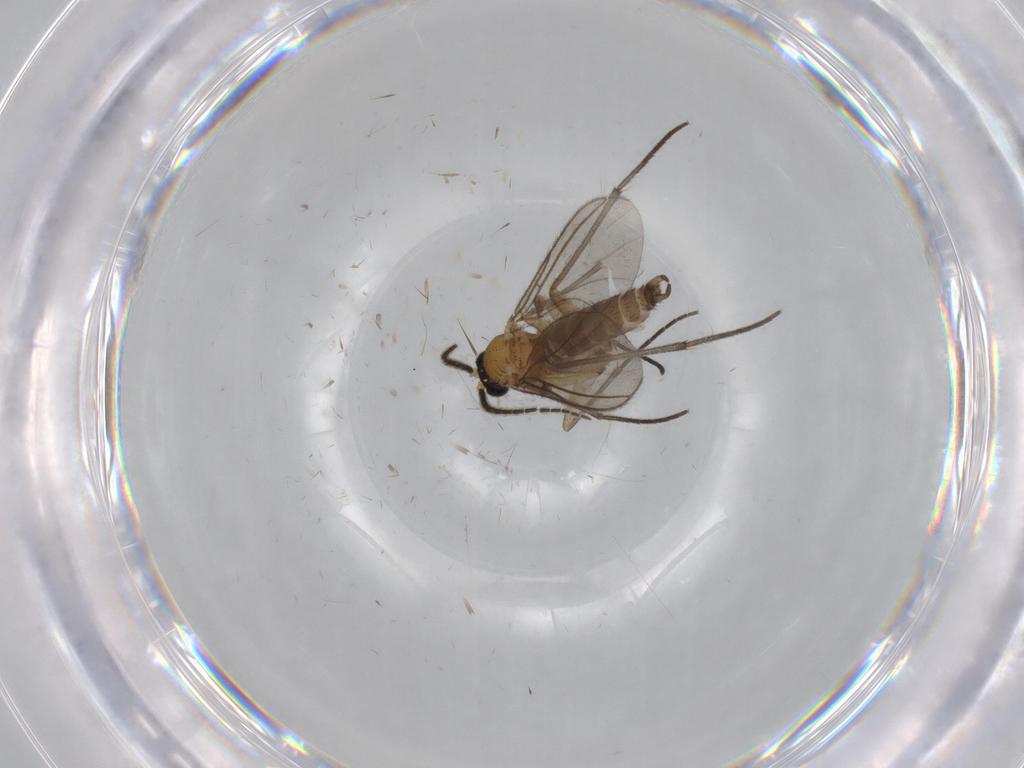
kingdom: Animalia
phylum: Arthropoda
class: Insecta
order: Diptera
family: Sciaridae
